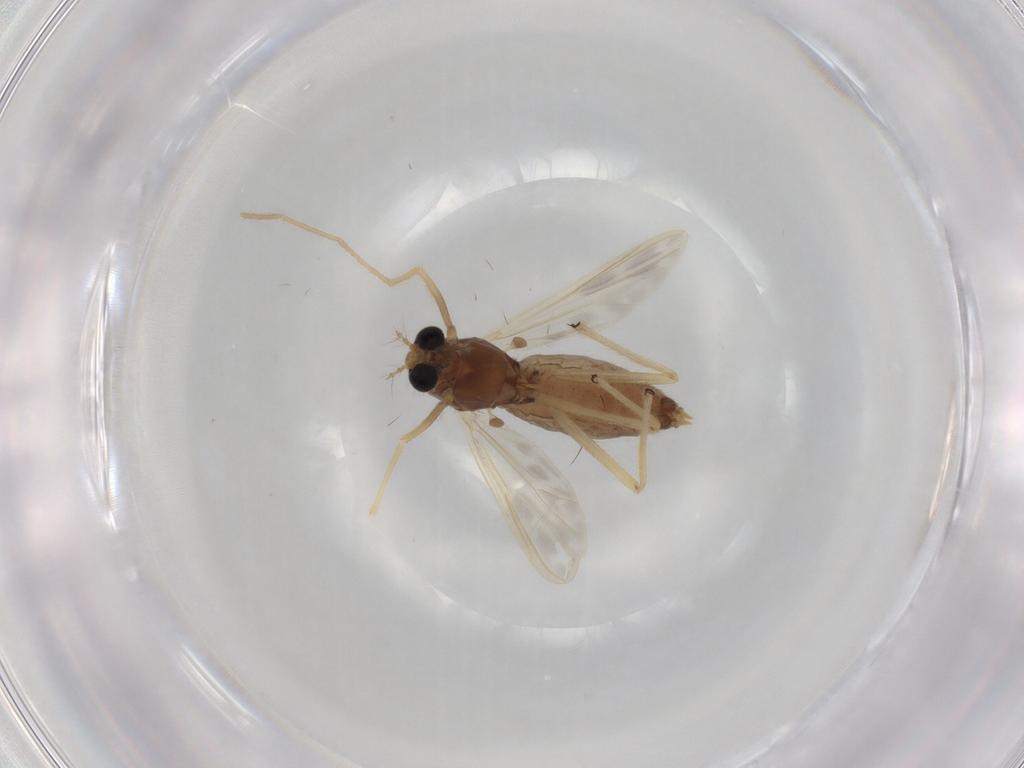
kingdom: Animalia
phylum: Arthropoda
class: Insecta
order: Diptera
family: Chironomidae
